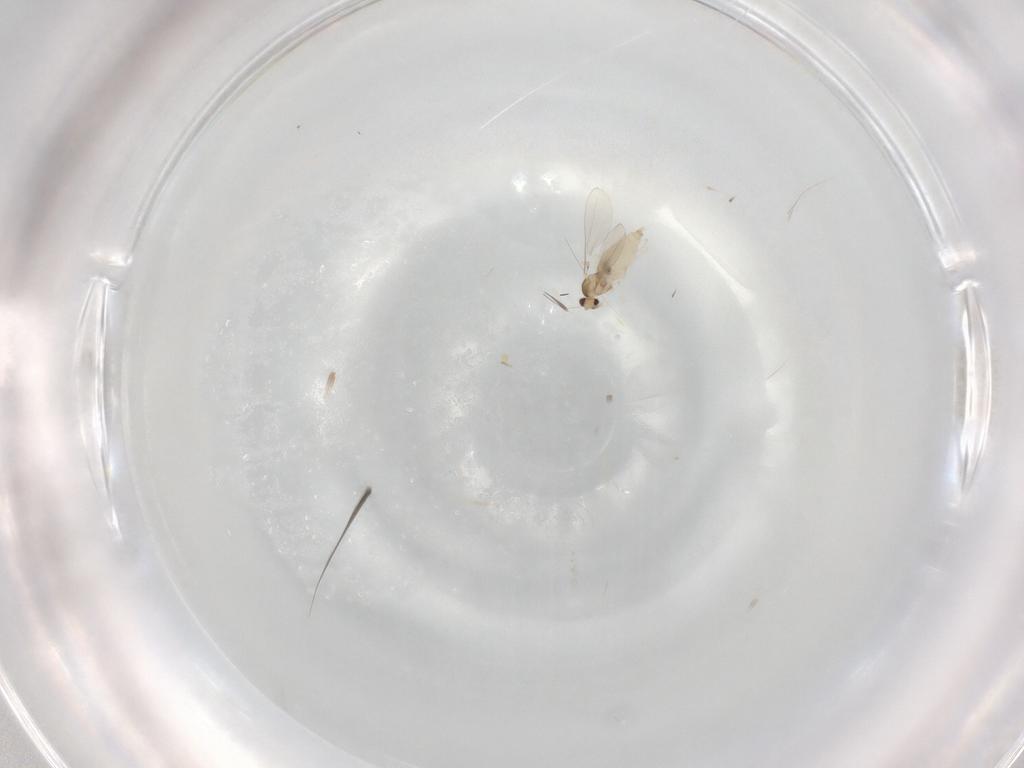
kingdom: Animalia
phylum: Arthropoda
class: Insecta
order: Diptera
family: Cecidomyiidae
